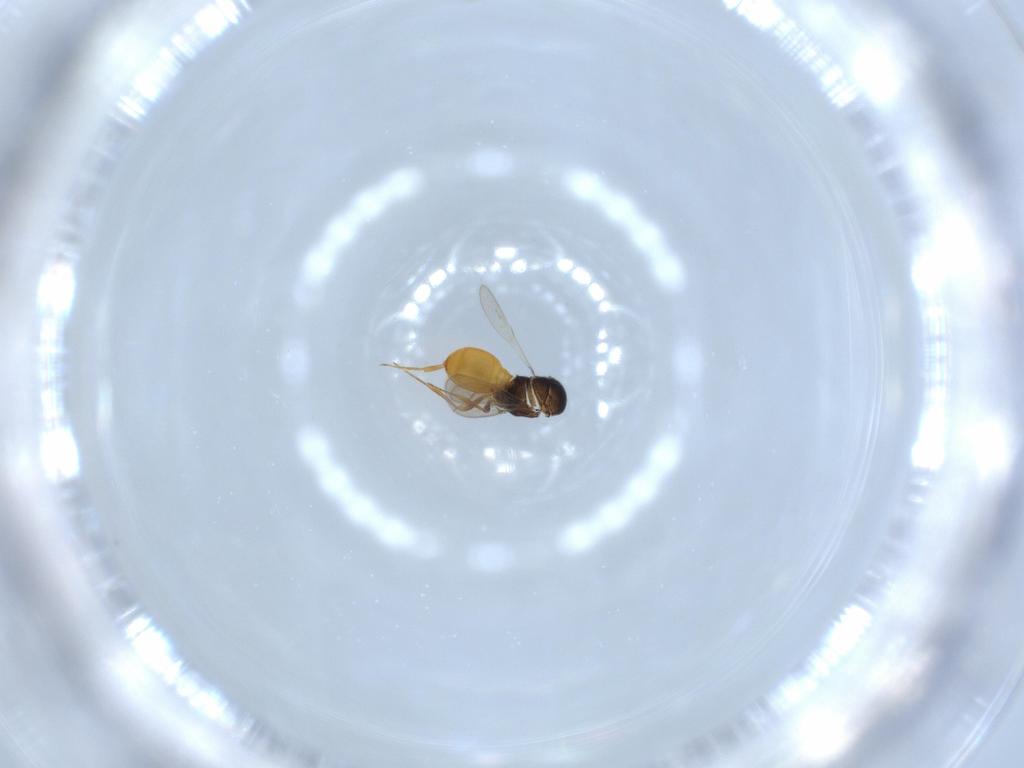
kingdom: Animalia
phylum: Arthropoda
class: Insecta
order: Hymenoptera
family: Scelionidae
